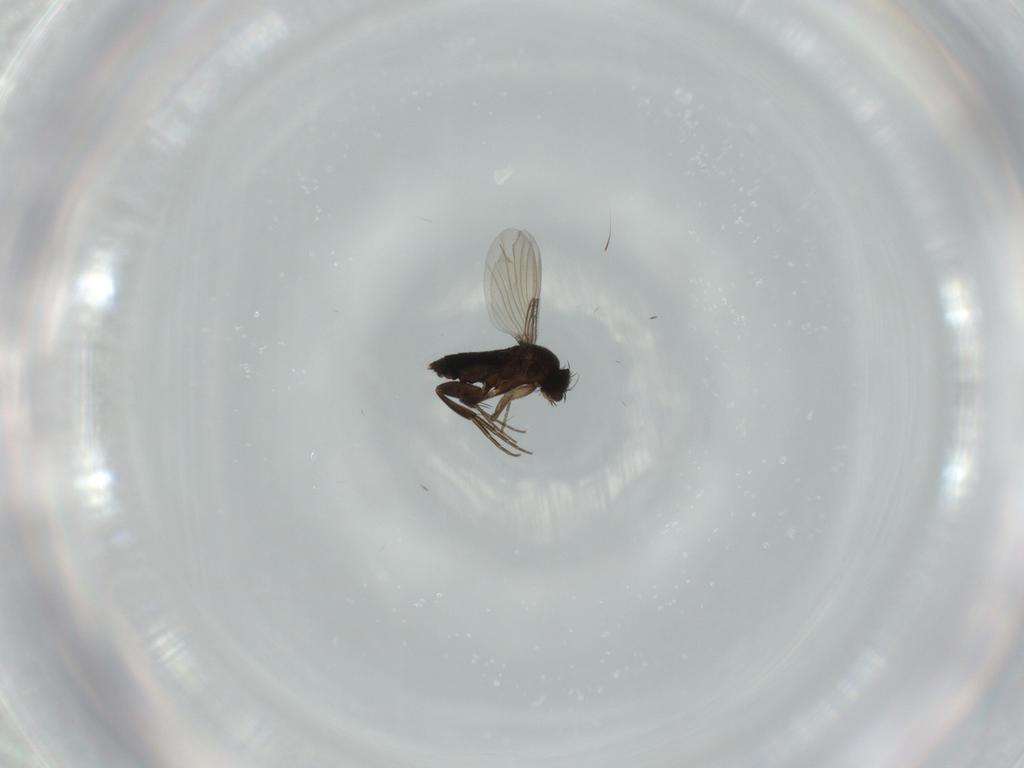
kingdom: Animalia
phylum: Arthropoda
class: Insecta
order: Diptera
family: Phoridae
